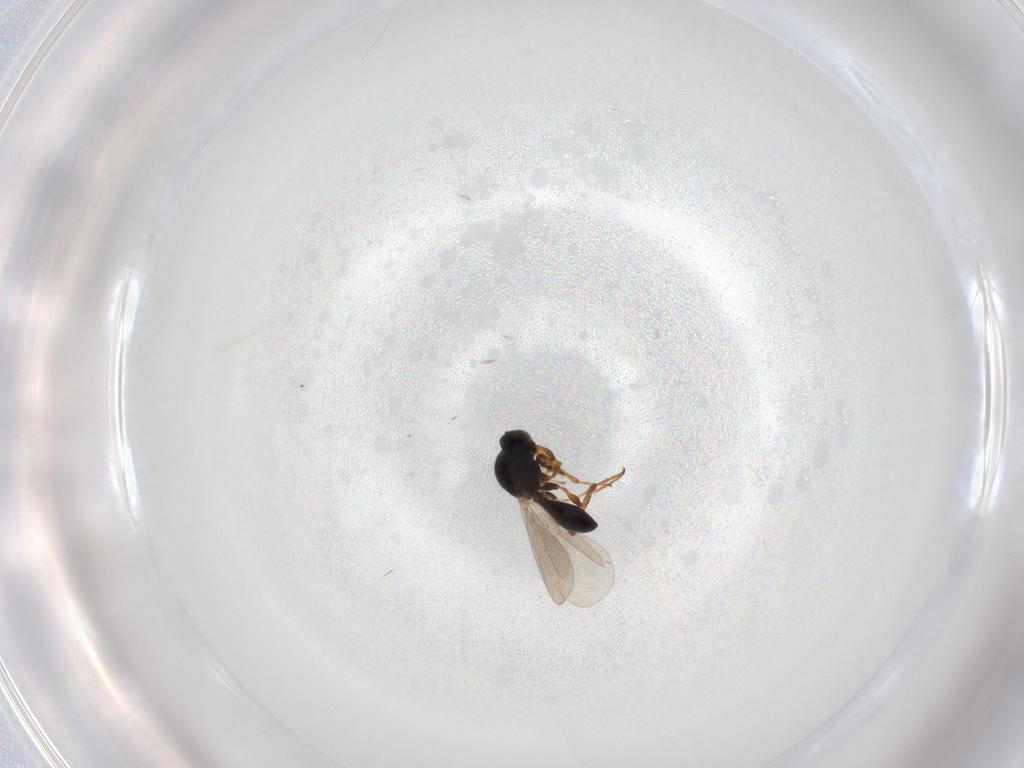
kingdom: Animalia
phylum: Arthropoda
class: Insecta
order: Hymenoptera
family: Platygastridae
